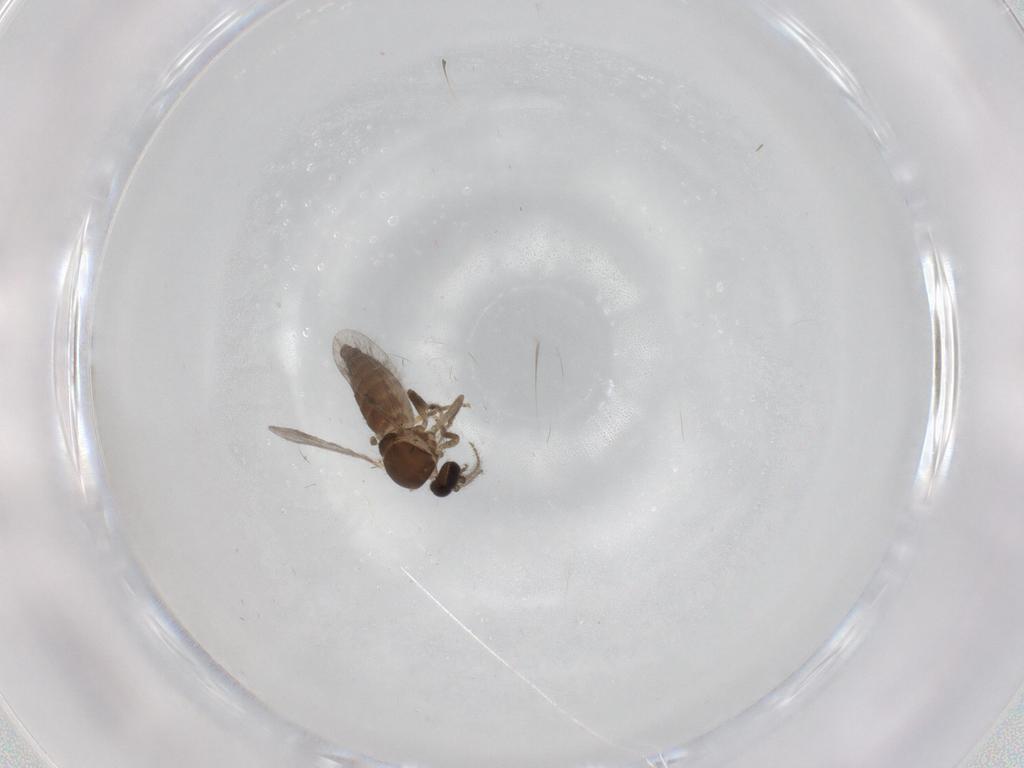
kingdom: Animalia
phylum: Arthropoda
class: Insecta
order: Diptera
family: Ceratopogonidae
